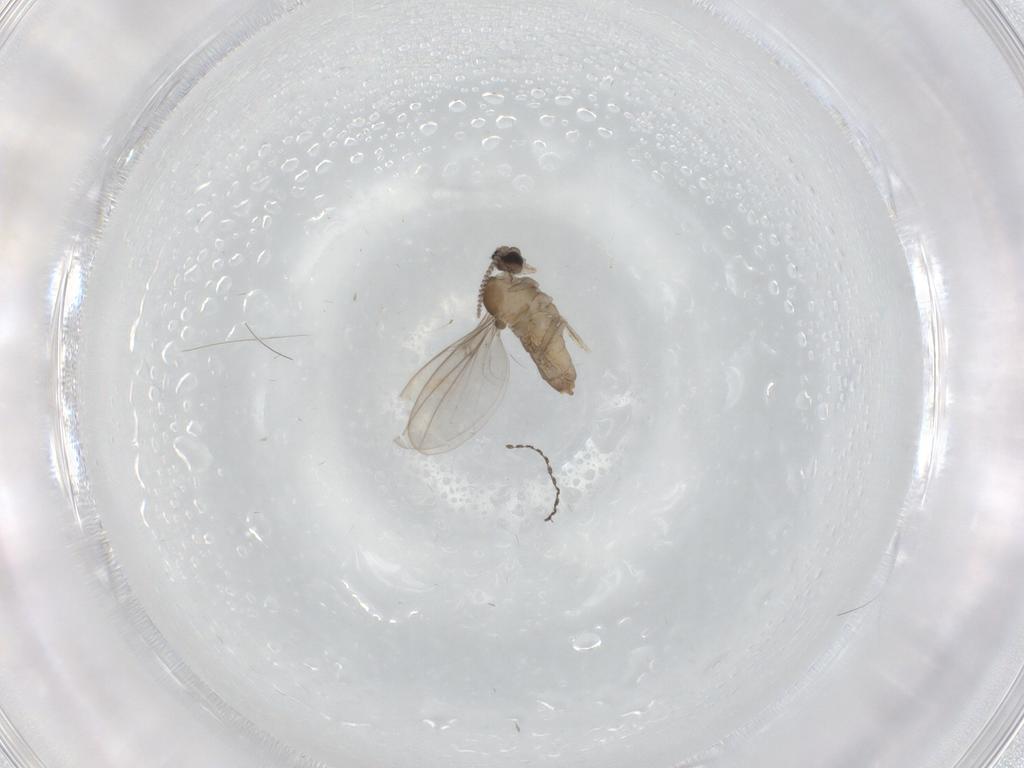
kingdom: Animalia
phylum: Arthropoda
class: Insecta
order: Diptera
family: Cecidomyiidae
